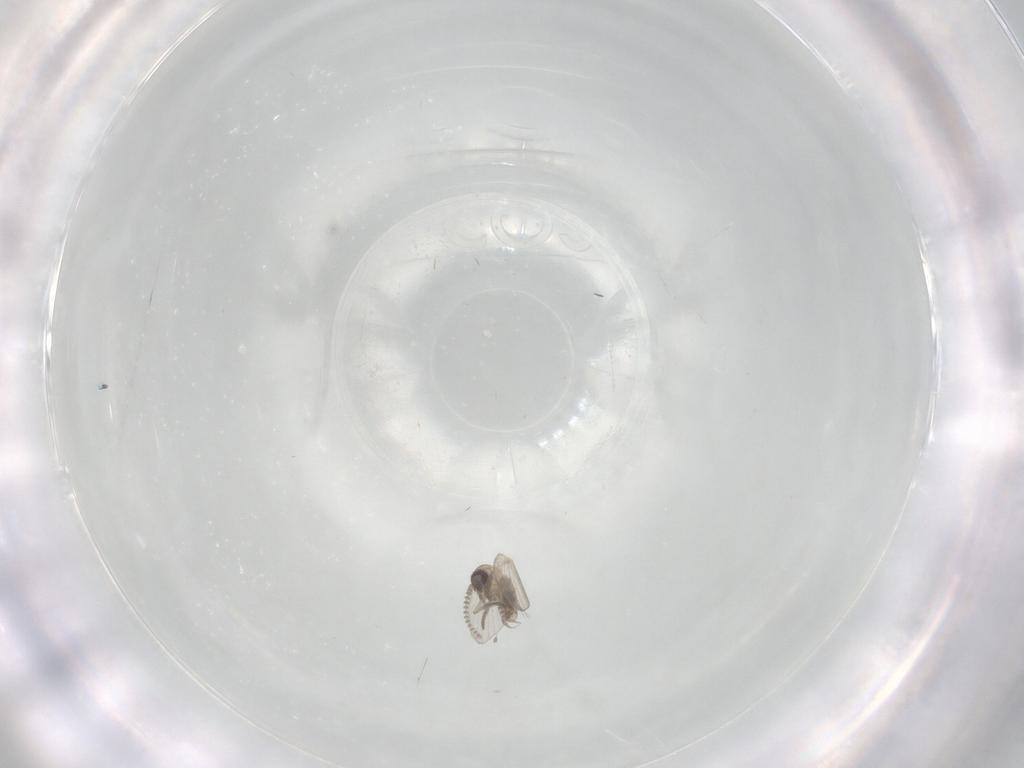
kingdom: Animalia
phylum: Arthropoda
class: Insecta
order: Diptera
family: Psychodidae
